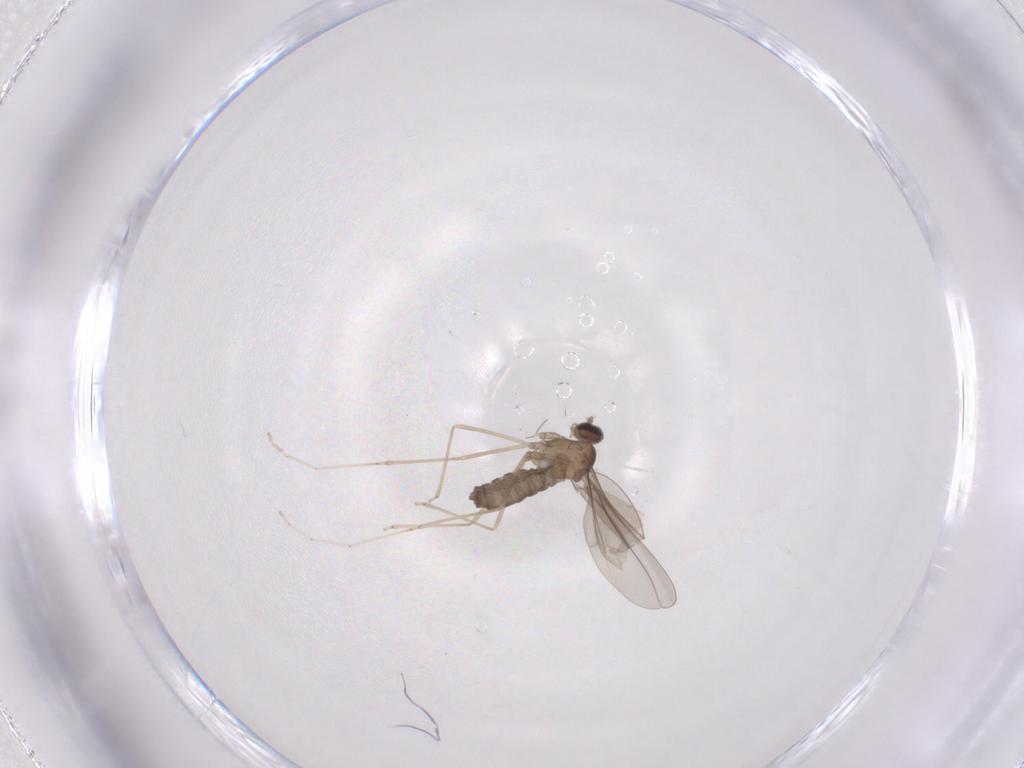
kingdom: Animalia
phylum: Arthropoda
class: Insecta
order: Diptera
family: Cecidomyiidae
